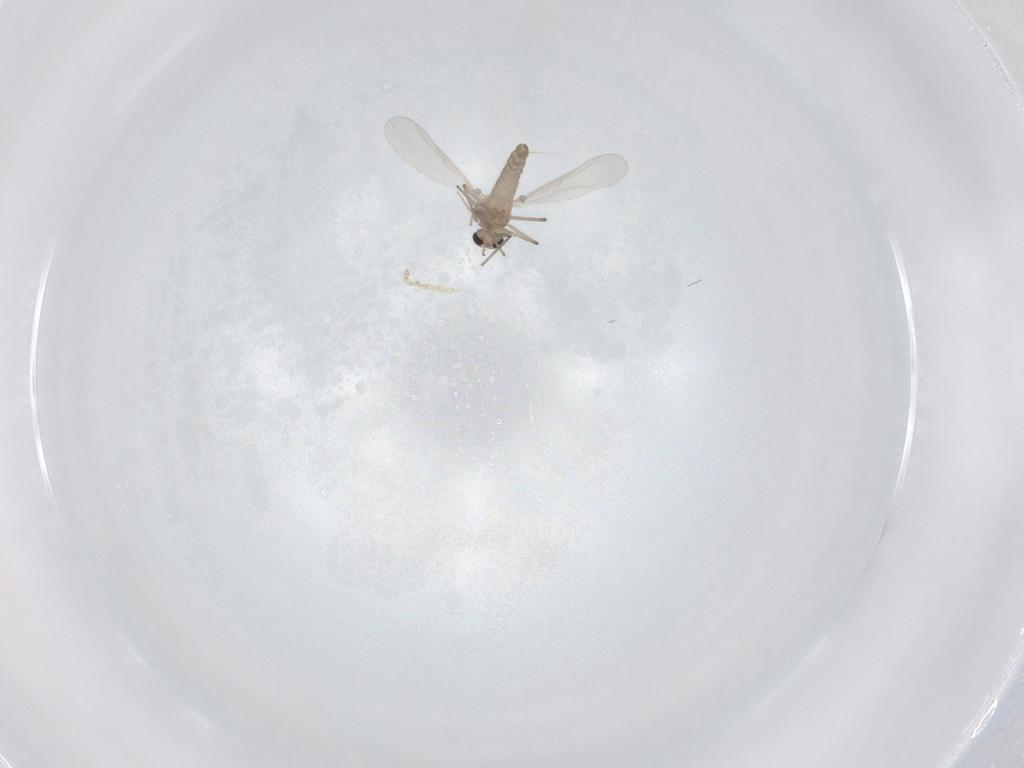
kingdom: Animalia
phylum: Arthropoda
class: Insecta
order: Diptera
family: Chironomidae
